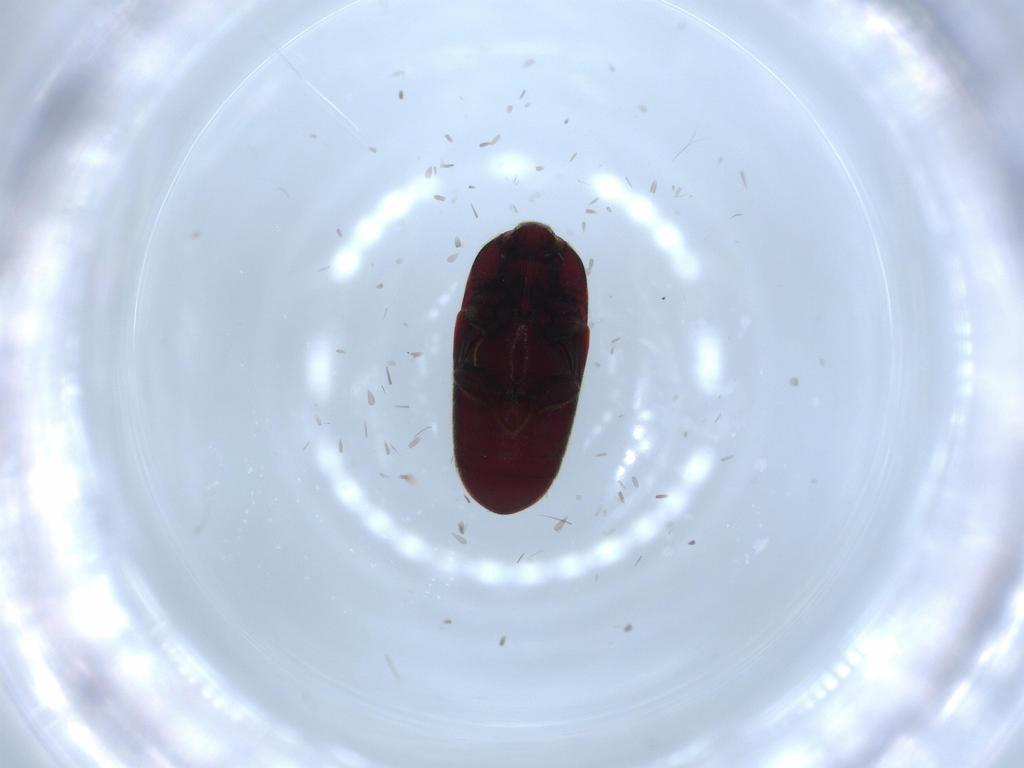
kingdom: Animalia
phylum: Arthropoda
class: Insecta
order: Coleoptera
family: Throscidae
